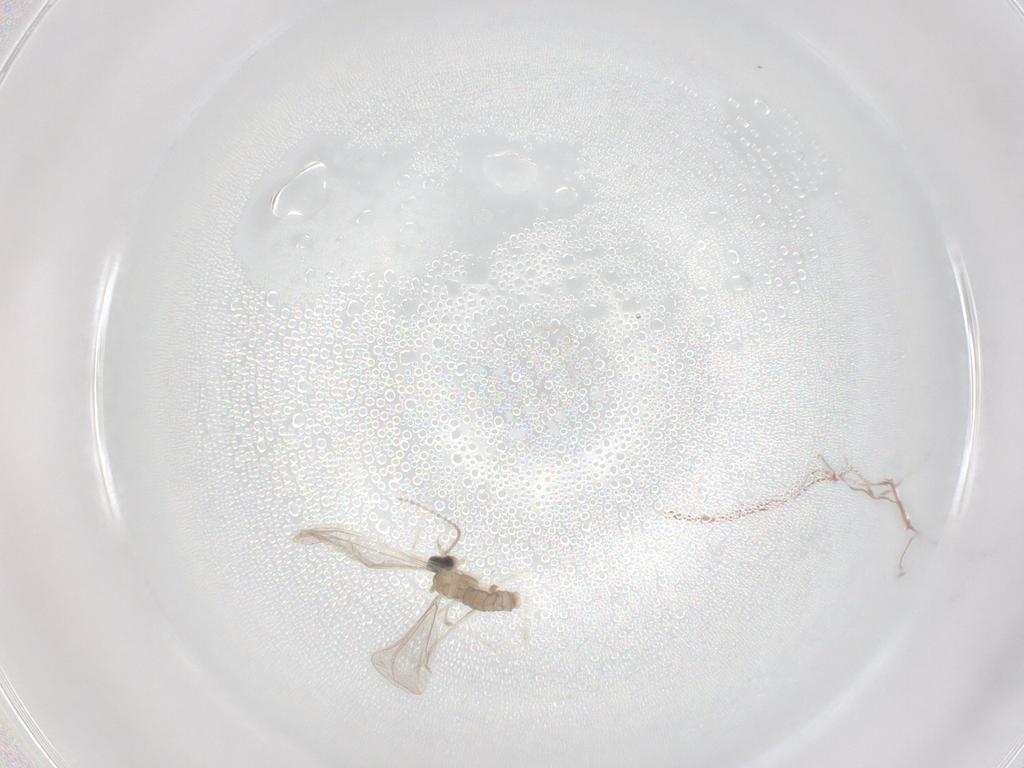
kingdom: Animalia
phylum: Arthropoda
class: Insecta
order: Diptera
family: Cecidomyiidae
